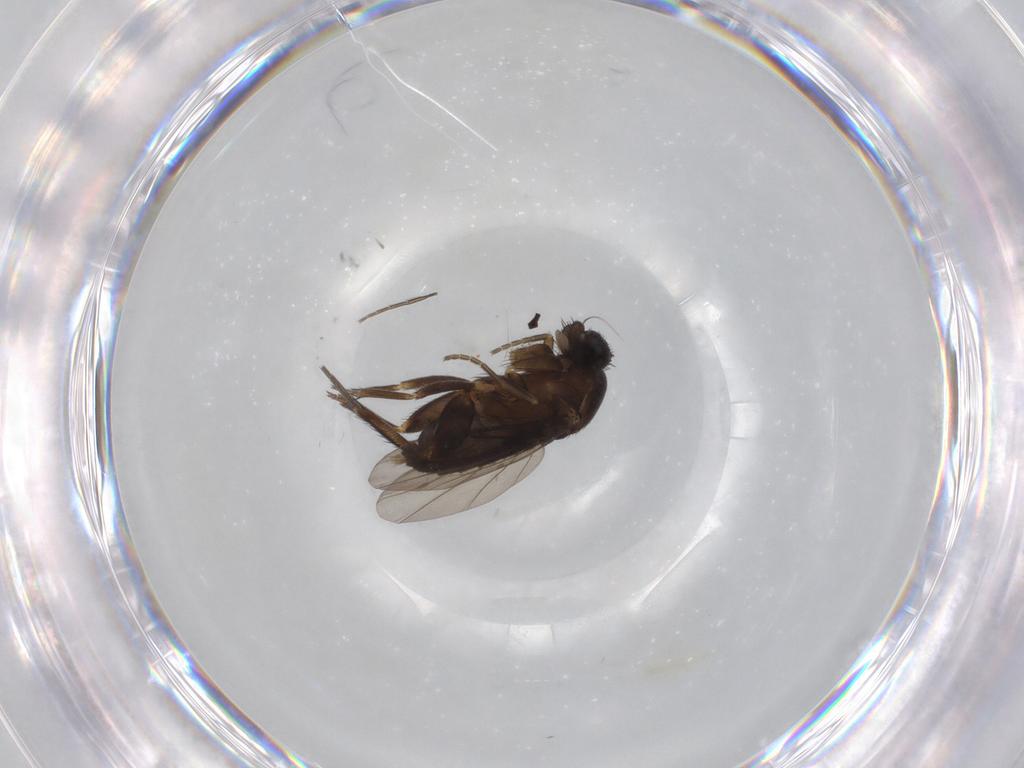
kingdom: Animalia
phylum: Arthropoda
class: Insecta
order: Diptera
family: Phoridae
